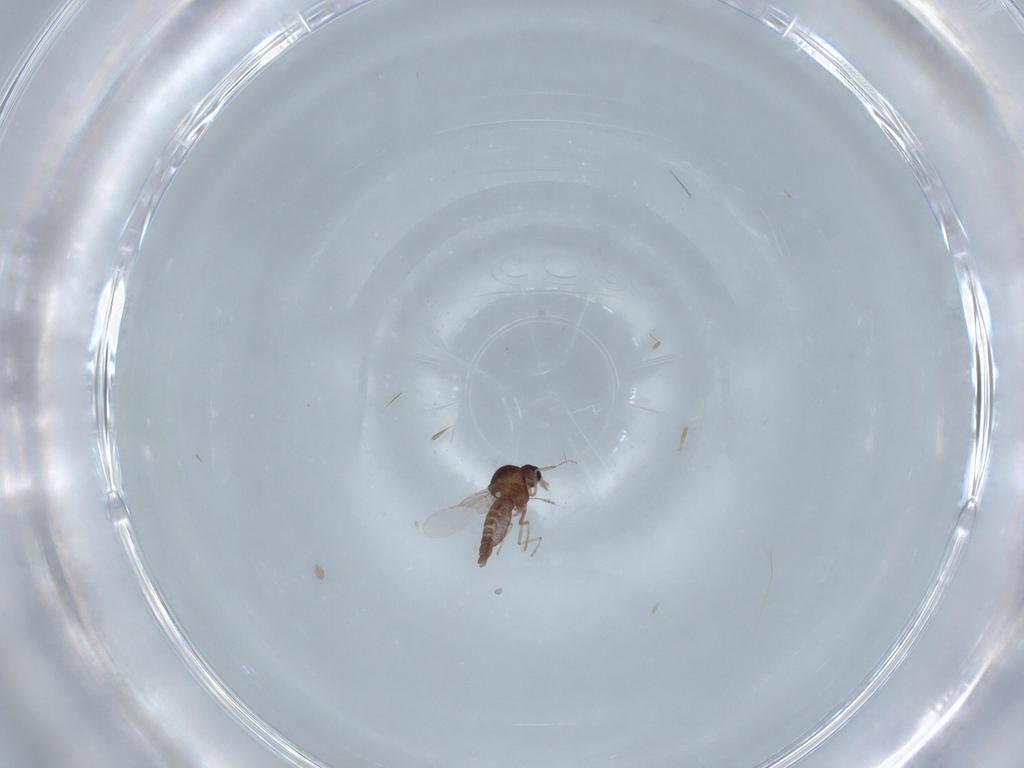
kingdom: Animalia
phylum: Arthropoda
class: Insecta
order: Diptera
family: Ceratopogonidae
